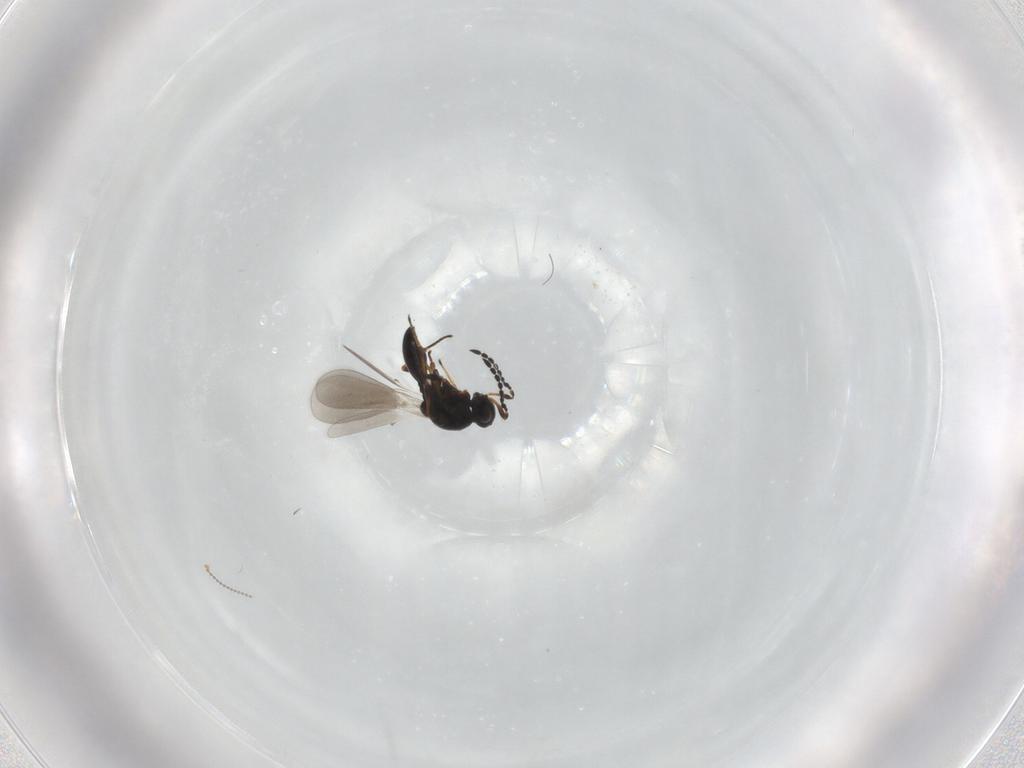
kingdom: Animalia
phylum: Arthropoda
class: Insecta
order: Hymenoptera
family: Platygastridae
